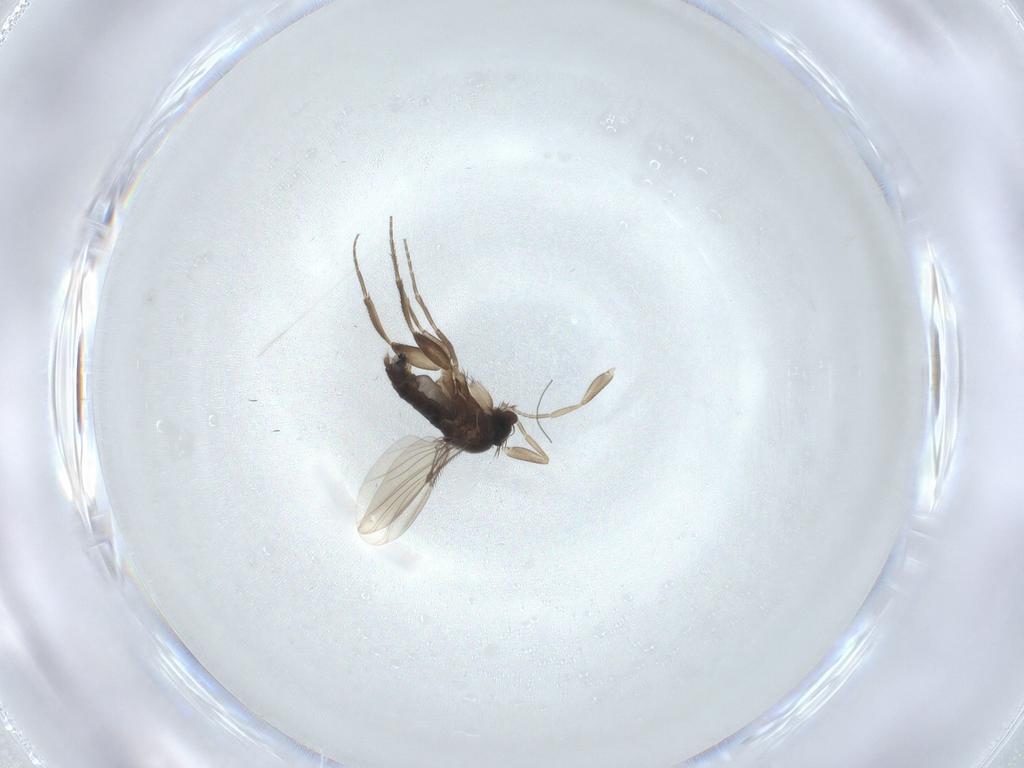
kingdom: Animalia
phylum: Arthropoda
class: Insecta
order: Diptera
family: Phoridae
